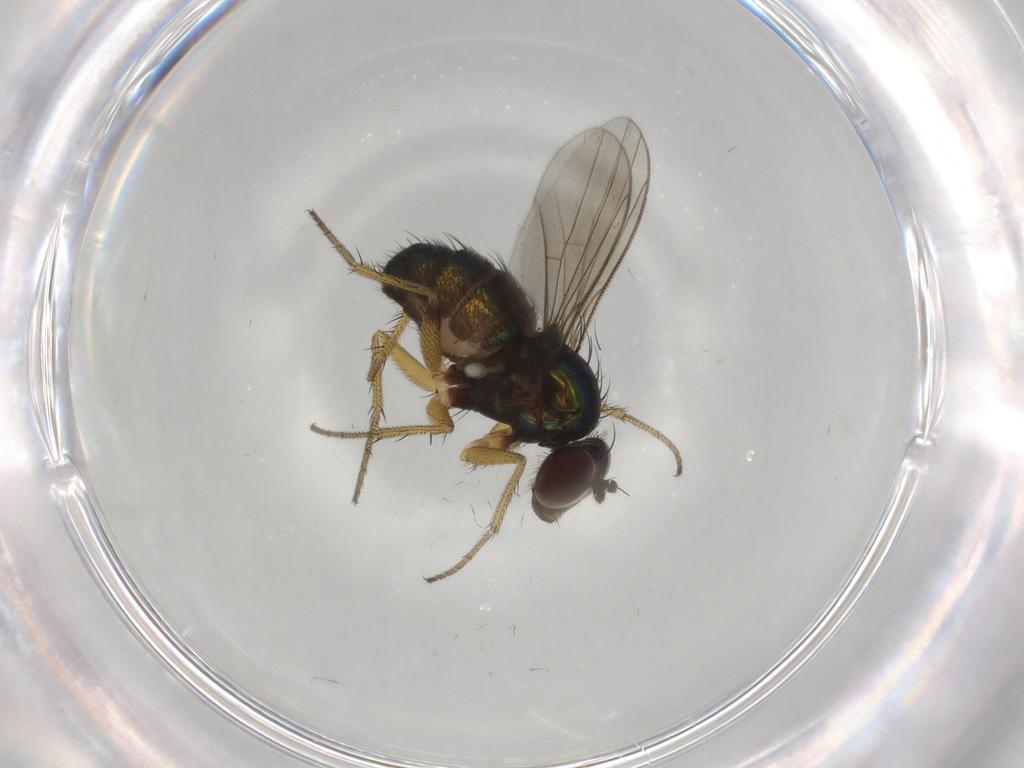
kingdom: Animalia
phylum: Arthropoda
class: Insecta
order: Diptera
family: Dolichopodidae
